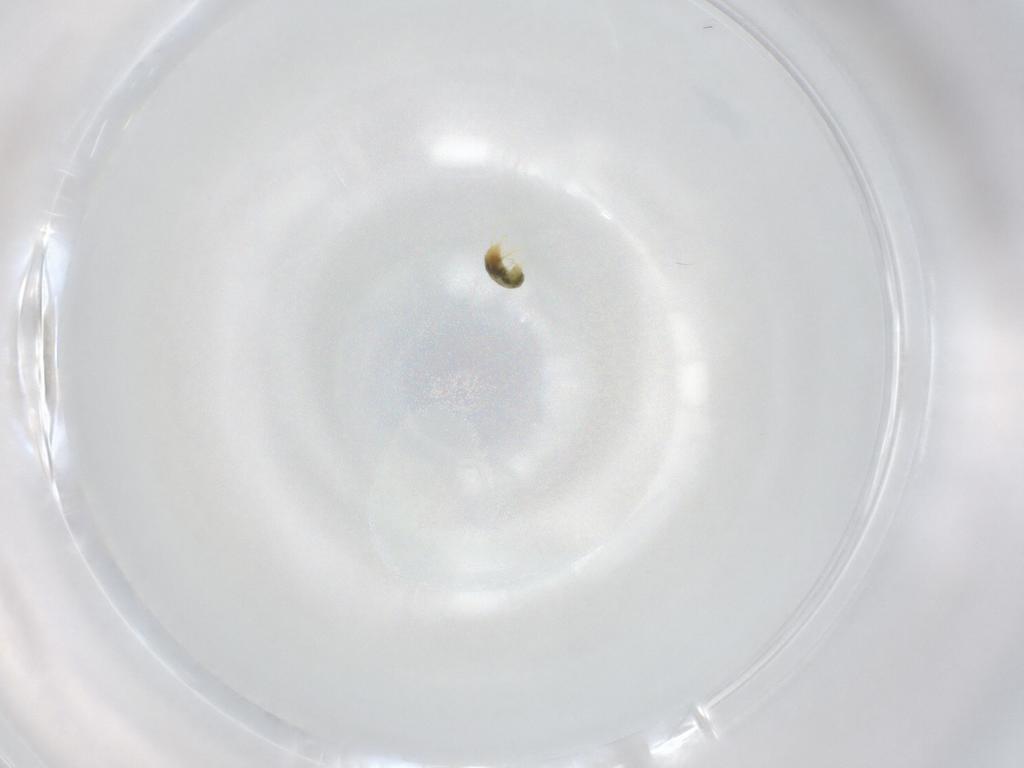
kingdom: Animalia
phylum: Arthropoda
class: Arachnida
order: Trombidiformes
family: Tetranychidae
